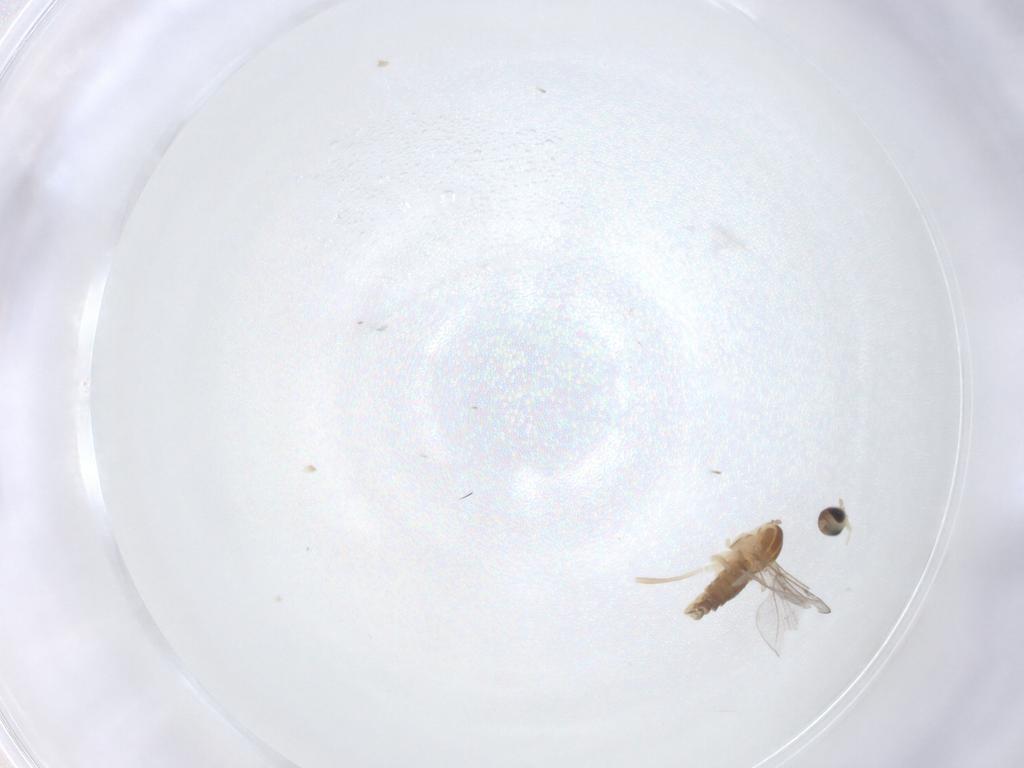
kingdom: Animalia
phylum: Arthropoda
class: Insecta
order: Diptera
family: Cecidomyiidae
